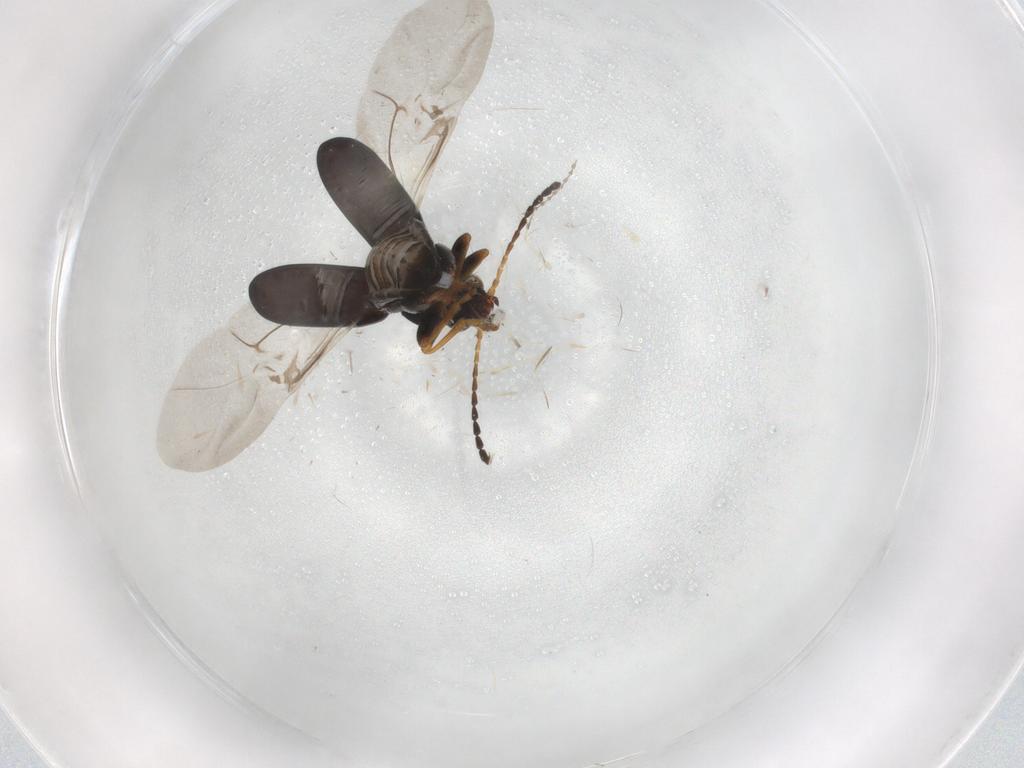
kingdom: Animalia
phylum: Arthropoda
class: Insecta
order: Coleoptera
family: Chrysomelidae
